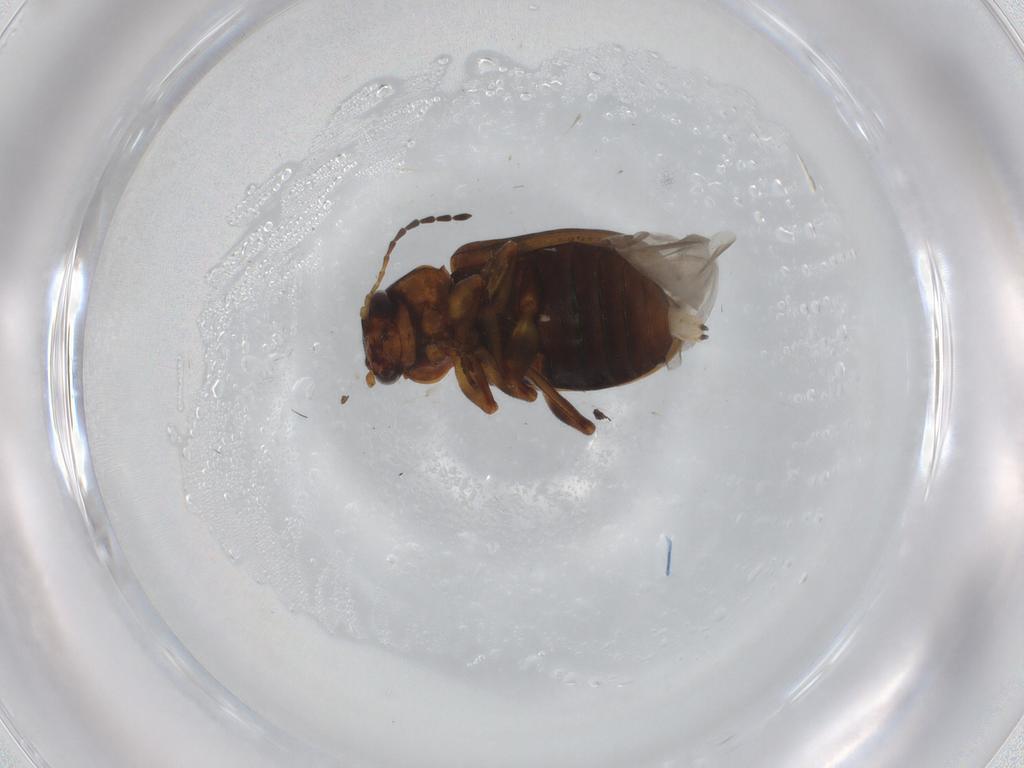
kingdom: Animalia
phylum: Arthropoda
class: Insecta
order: Coleoptera
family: Chrysomelidae
